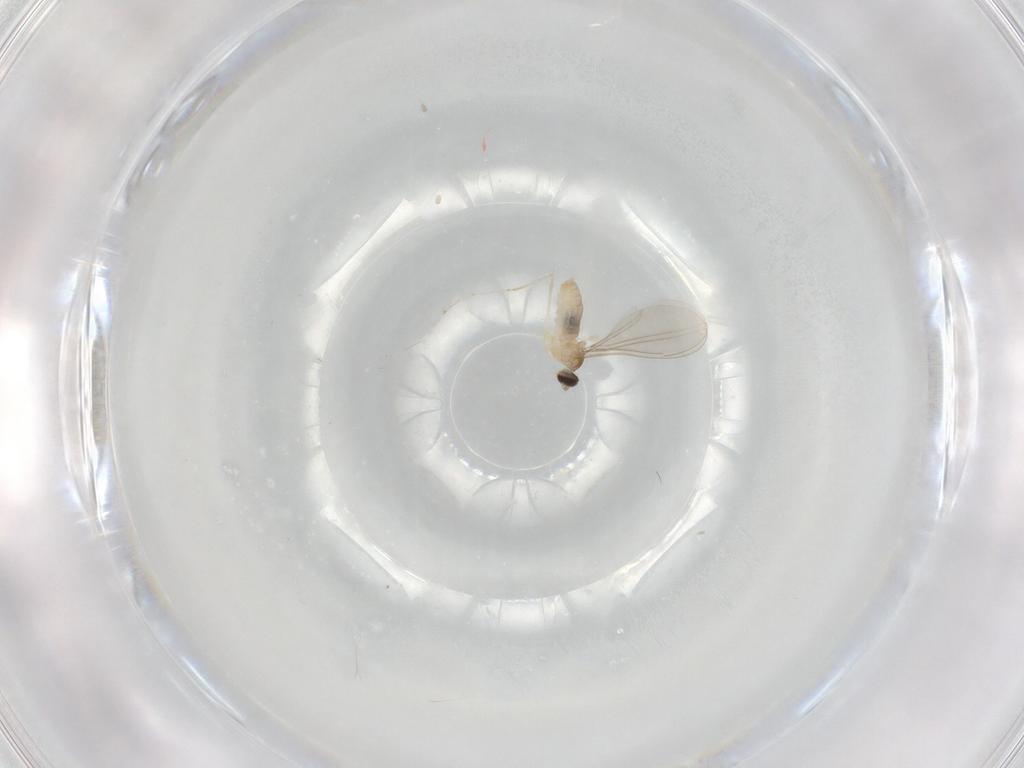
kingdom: Animalia
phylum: Arthropoda
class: Insecta
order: Diptera
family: Cecidomyiidae
